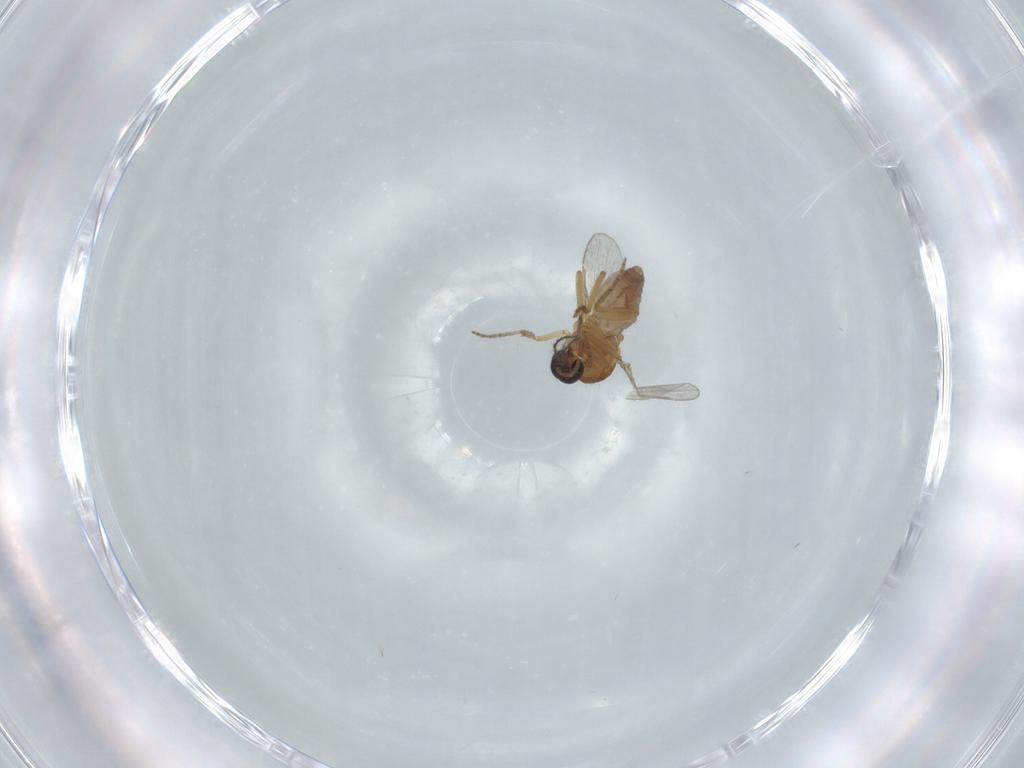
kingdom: Animalia
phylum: Arthropoda
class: Insecta
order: Diptera
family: Ceratopogonidae
